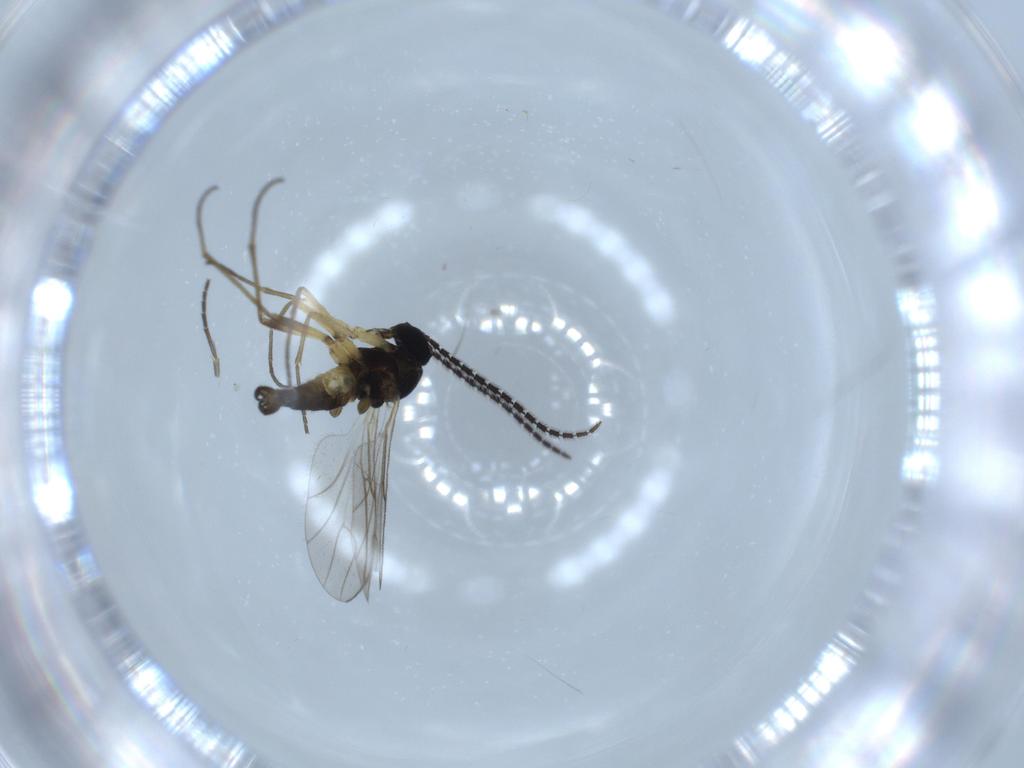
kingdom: Animalia
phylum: Arthropoda
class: Insecta
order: Diptera
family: Sciaridae
